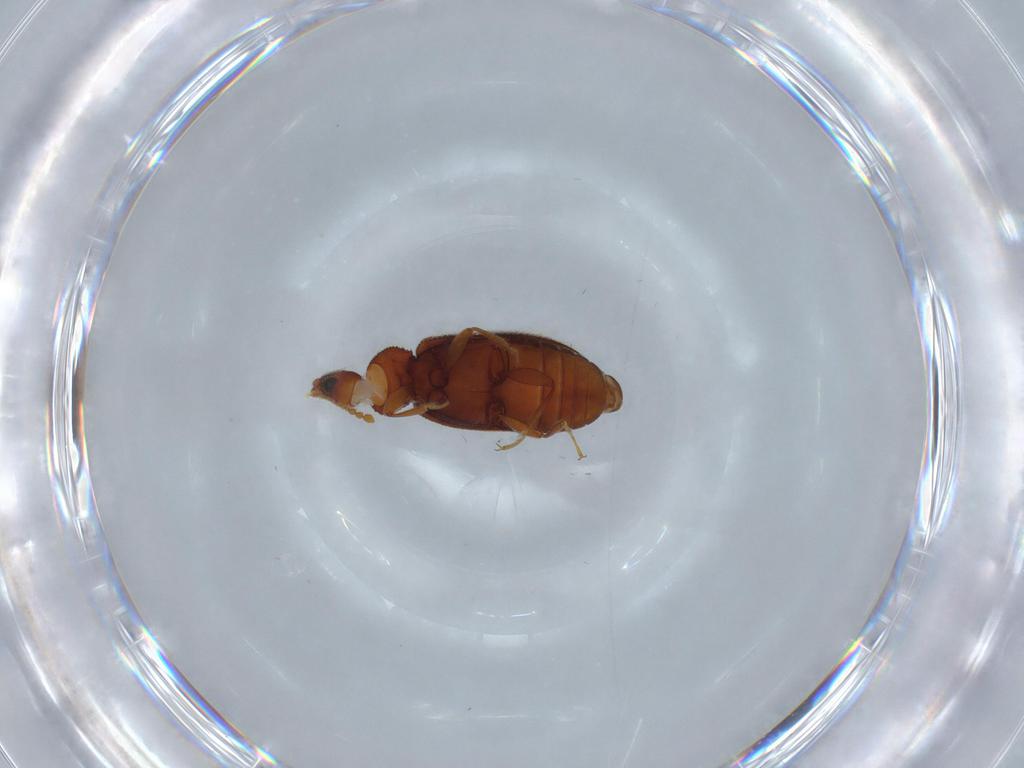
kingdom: Animalia
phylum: Arthropoda
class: Insecta
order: Coleoptera
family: Latridiidae
